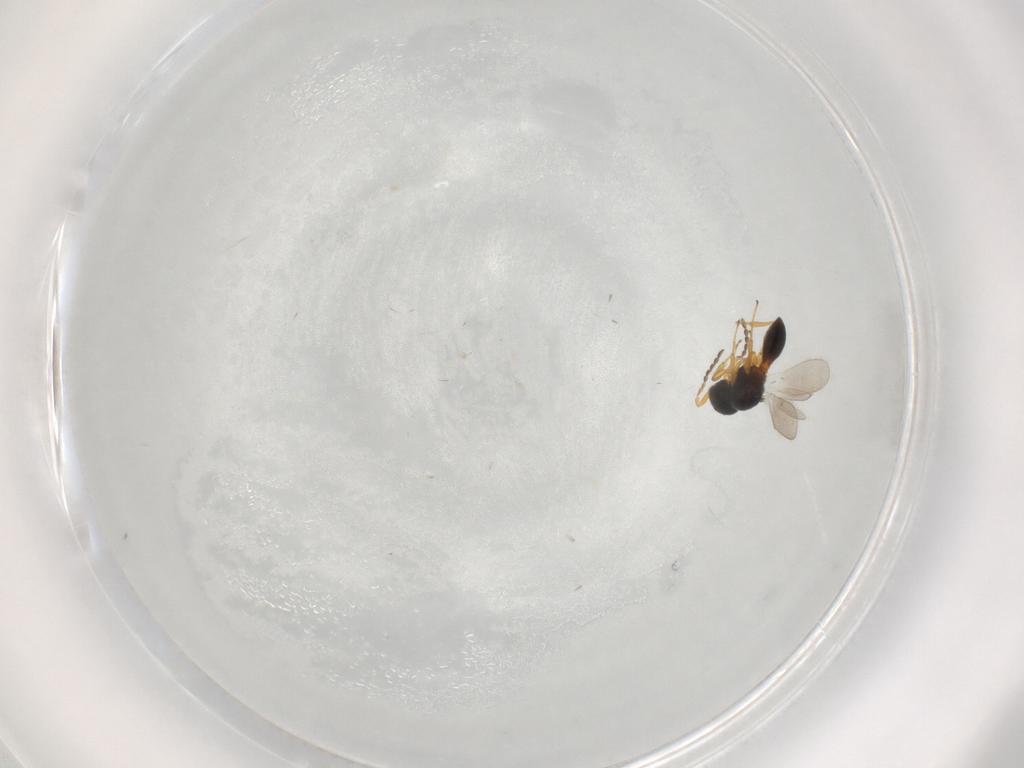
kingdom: Animalia
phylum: Arthropoda
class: Insecta
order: Hymenoptera
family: Platygastridae
